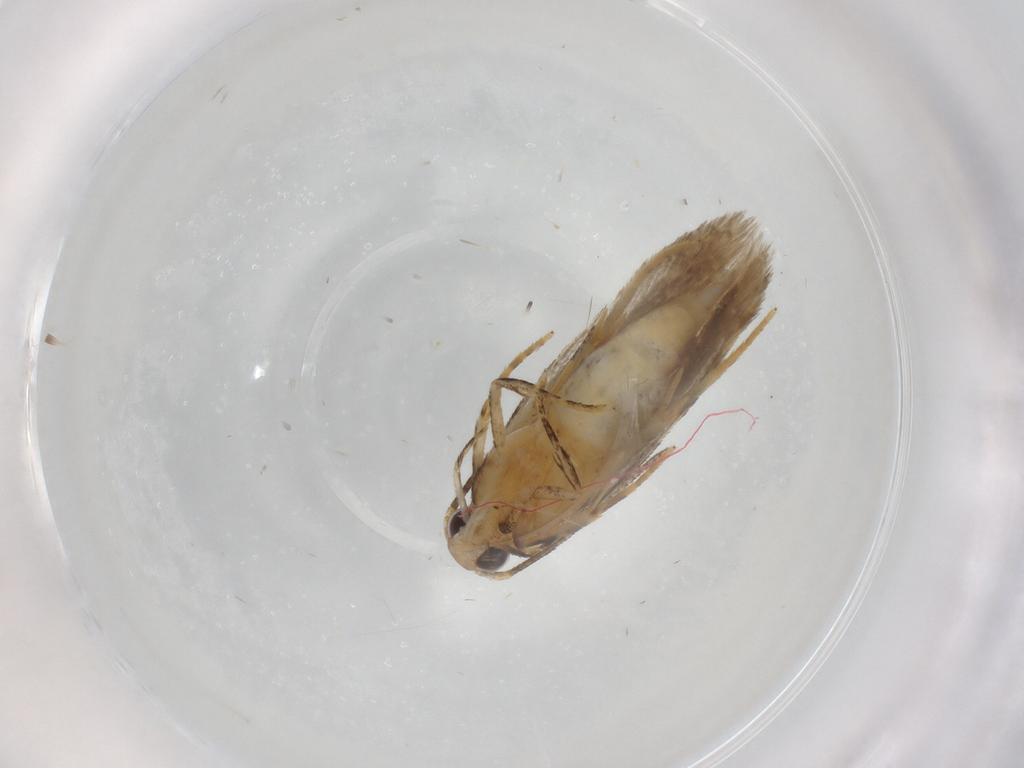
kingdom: Animalia
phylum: Arthropoda
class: Insecta
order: Lepidoptera
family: Autostichidae
